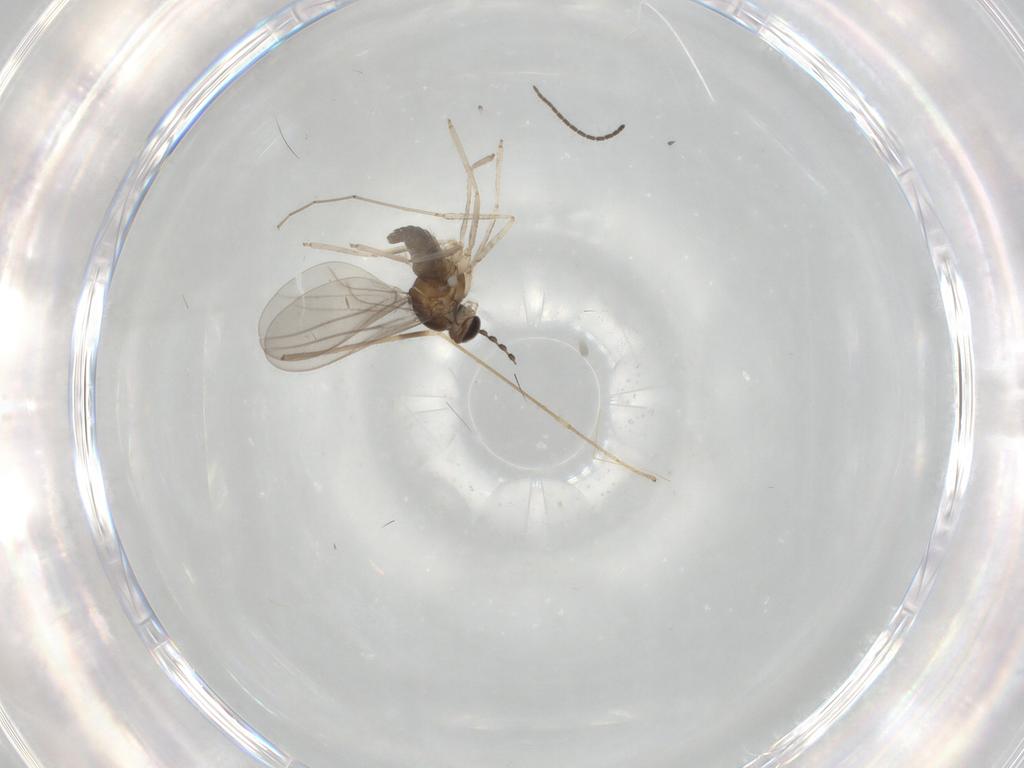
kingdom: Animalia
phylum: Arthropoda
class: Insecta
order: Diptera
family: Cecidomyiidae
